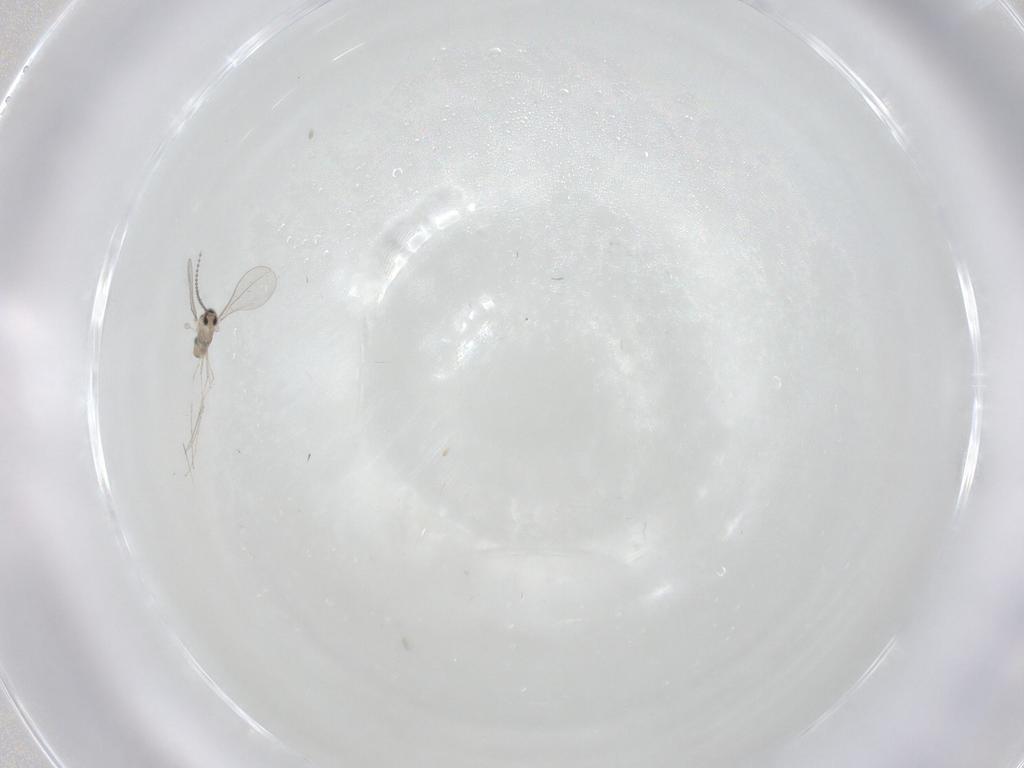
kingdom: Animalia
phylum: Arthropoda
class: Insecta
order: Diptera
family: Cecidomyiidae
